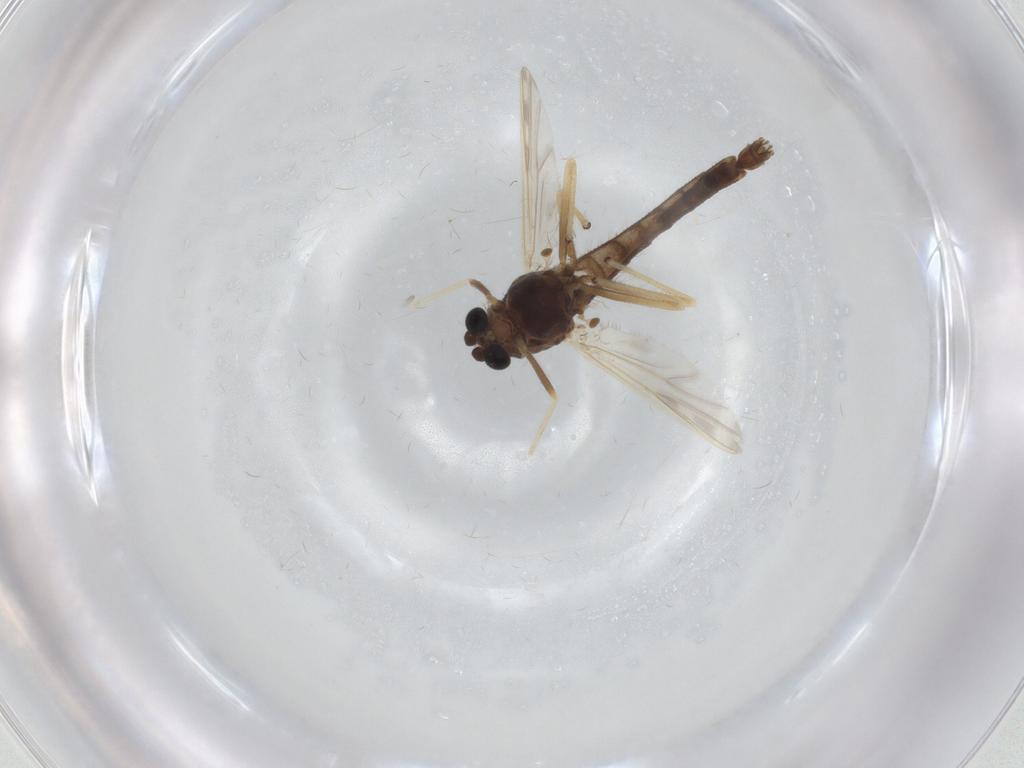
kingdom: Animalia
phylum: Arthropoda
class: Insecta
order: Diptera
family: Chironomidae
